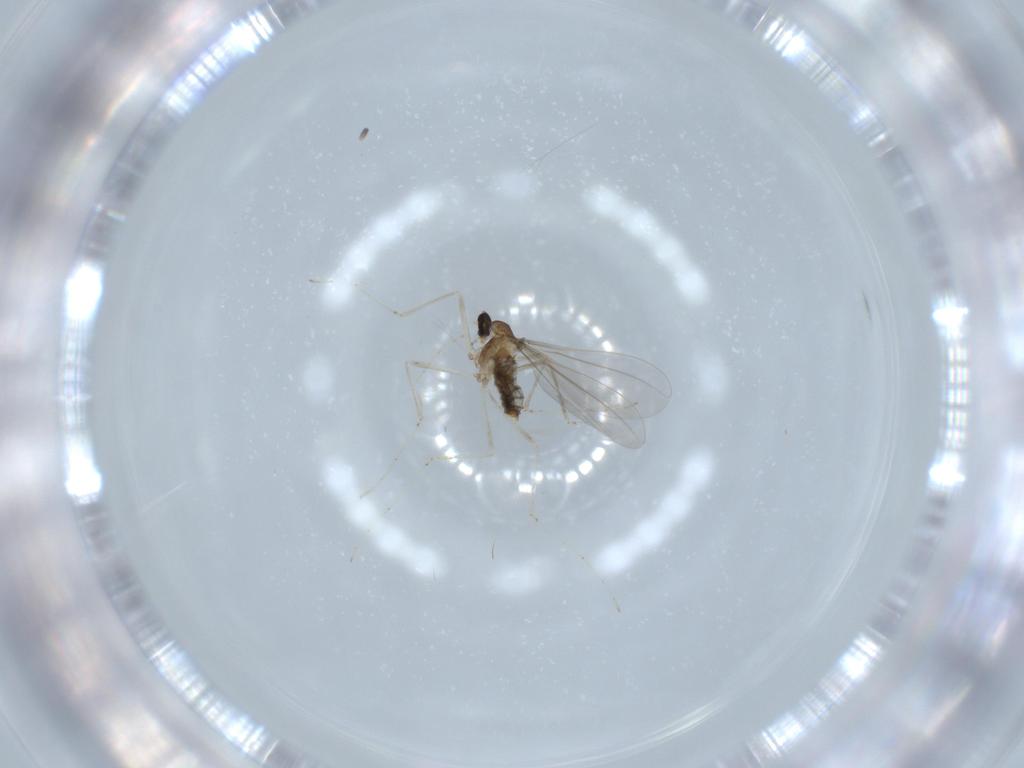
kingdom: Animalia
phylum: Arthropoda
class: Insecta
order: Diptera
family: Cecidomyiidae
